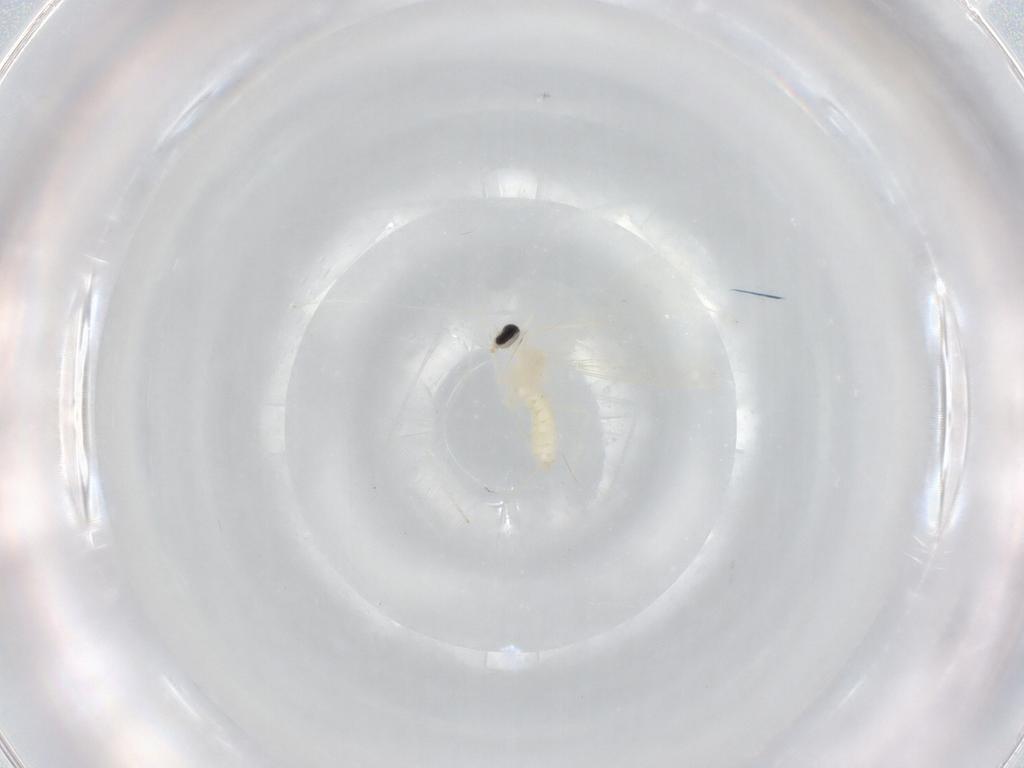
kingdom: Animalia
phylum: Arthropoda
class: Insecta
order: Diptera
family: Cecidomyiidae
